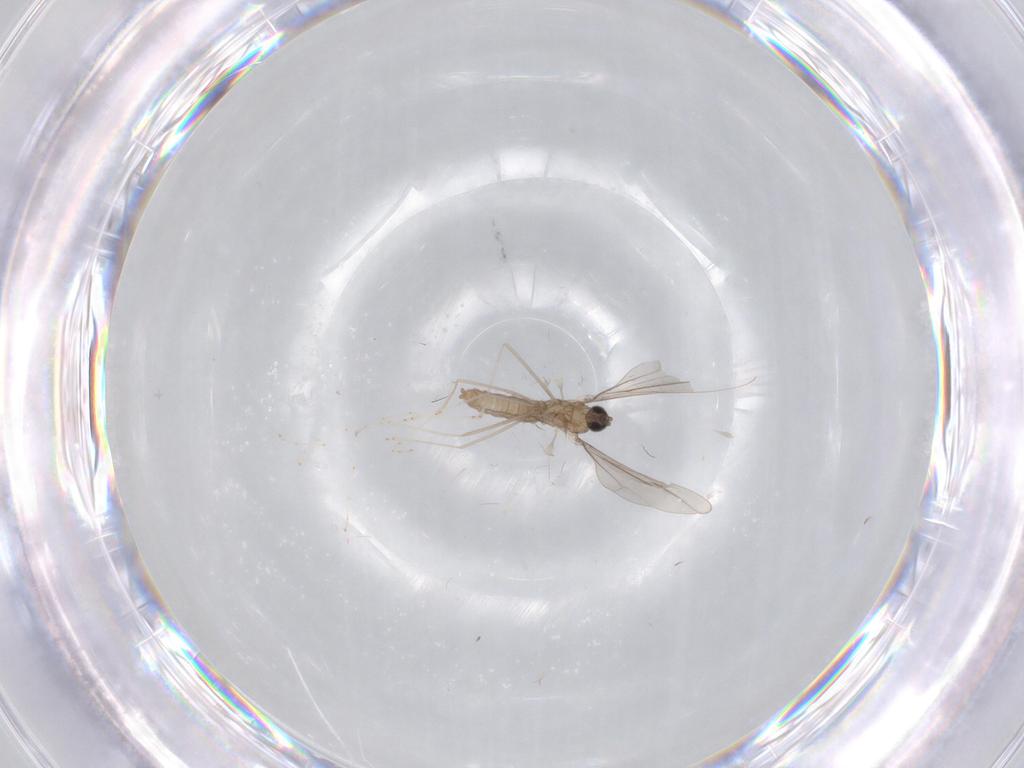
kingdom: Animalia
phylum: Arthropoda
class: Insecta
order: Diptera
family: Cecidomyiidae
